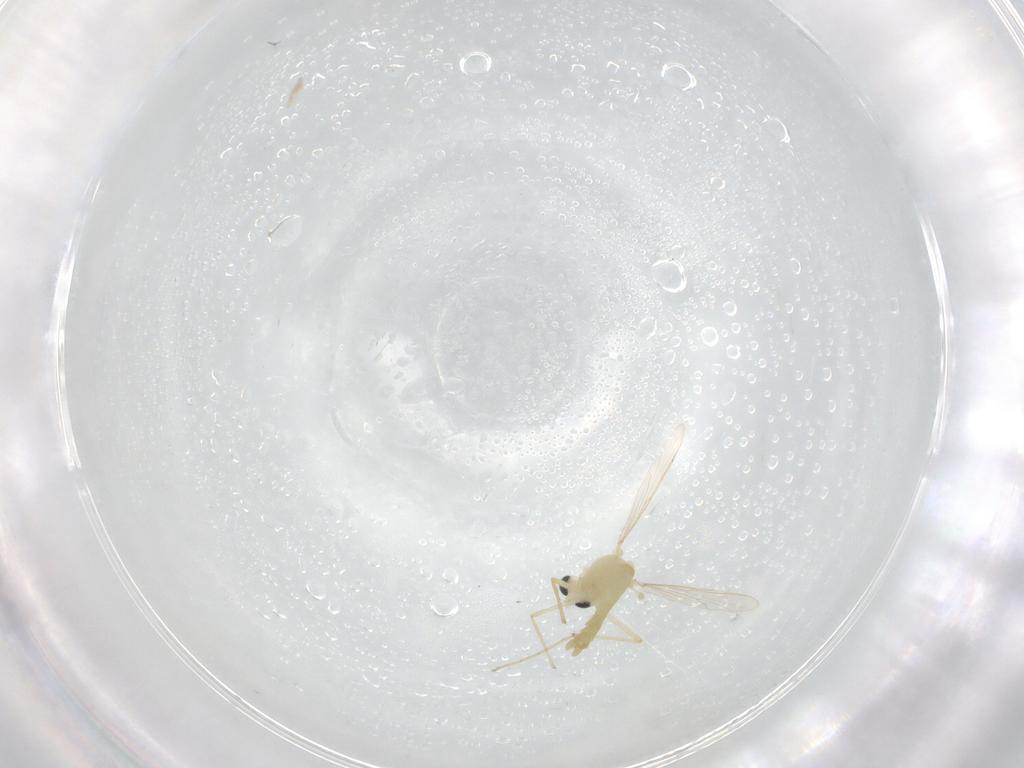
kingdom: Animalia
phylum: Arthropoda
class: Insecta
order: Diptera
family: Chironomidae
